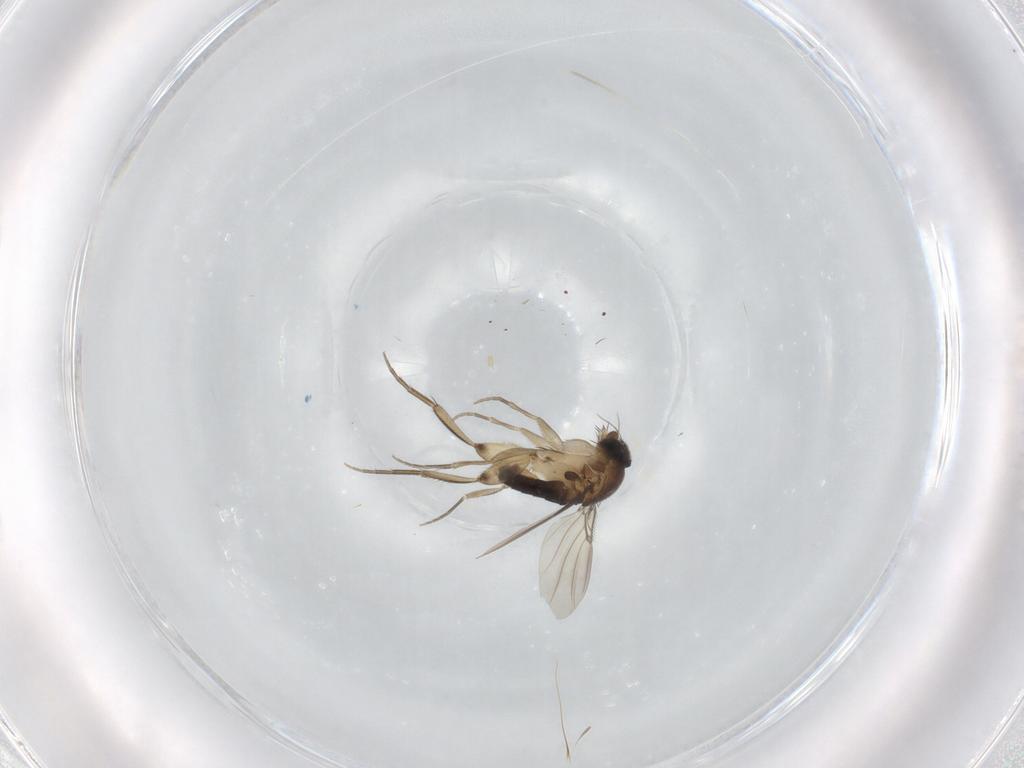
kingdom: Animalia
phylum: Arthropoda
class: Insecta
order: Diptera
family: Phoridae
